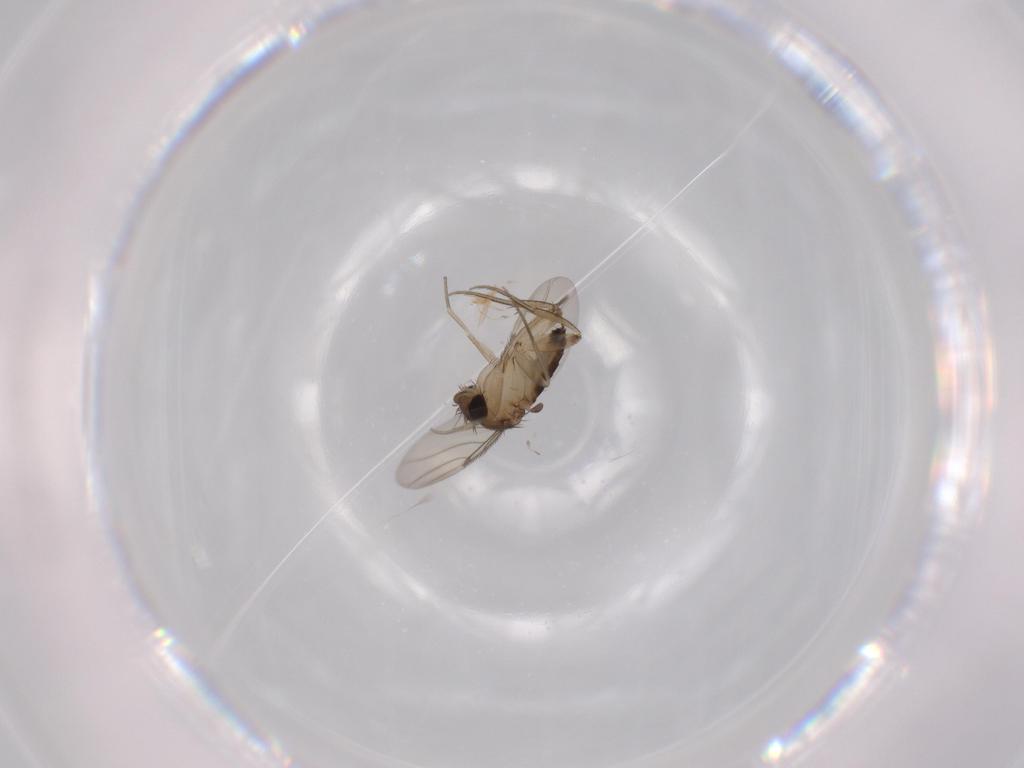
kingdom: Animalia
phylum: Arthropoda
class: Insecta
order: Diptera
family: Phoridae
